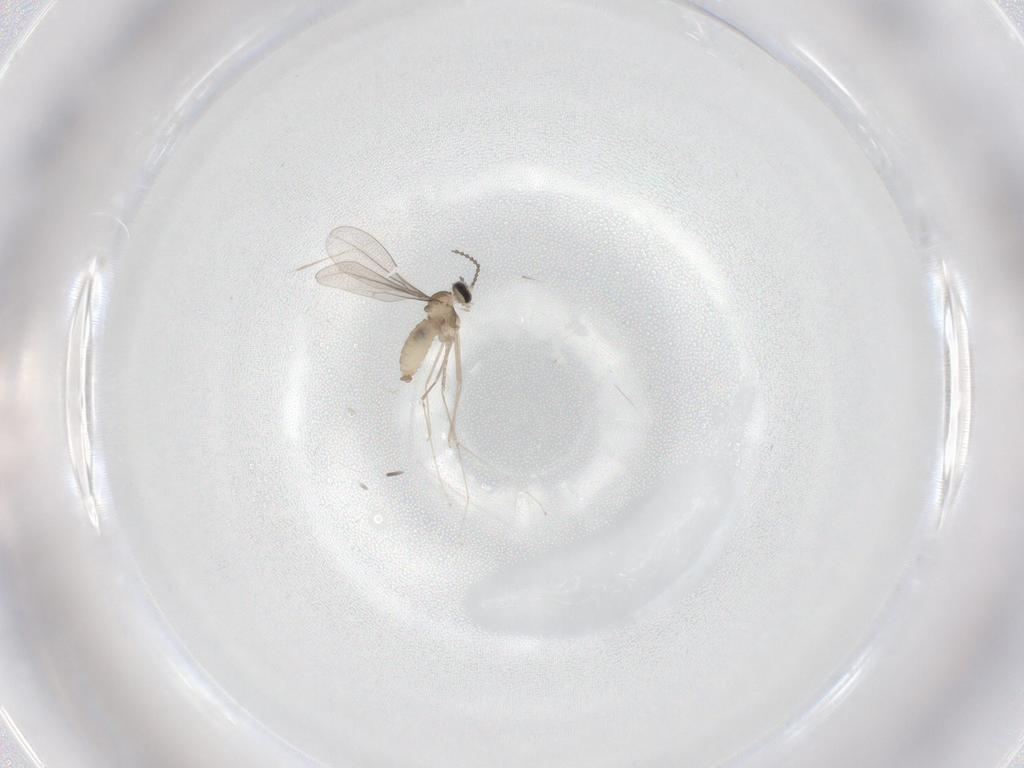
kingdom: Animalia
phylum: Arthropoda
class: Insecta
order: Diptera
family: Cecidomyiidae
